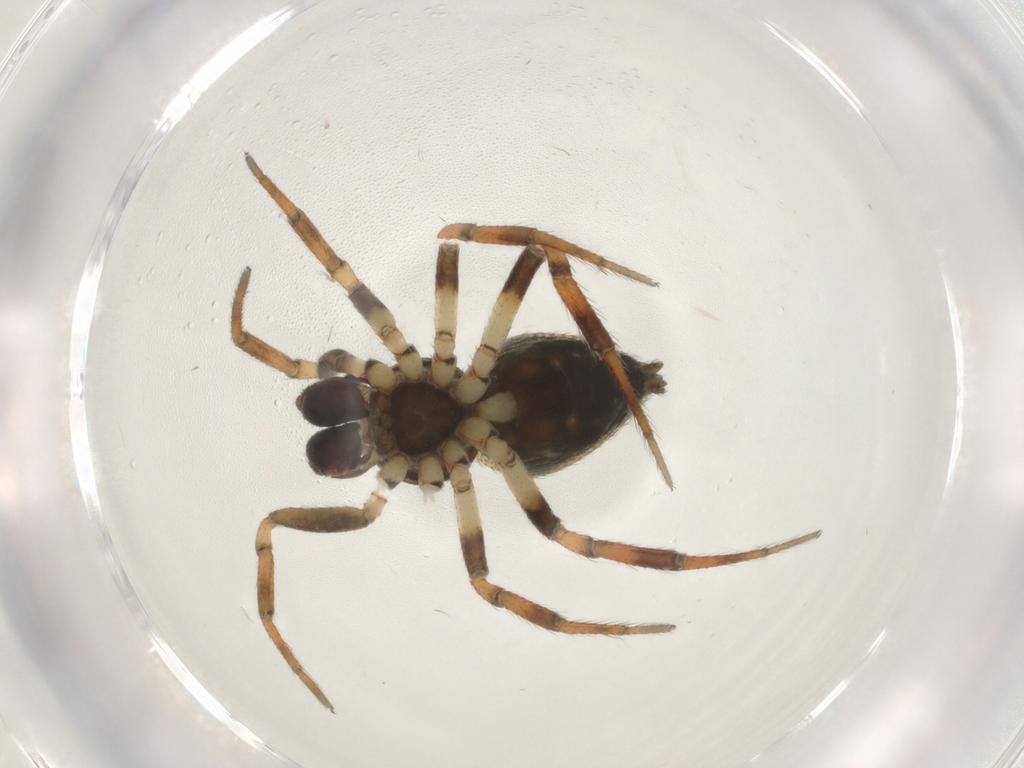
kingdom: Animalia
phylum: Arthropoda
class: Arachnida
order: Araneae
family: Theridiidae
